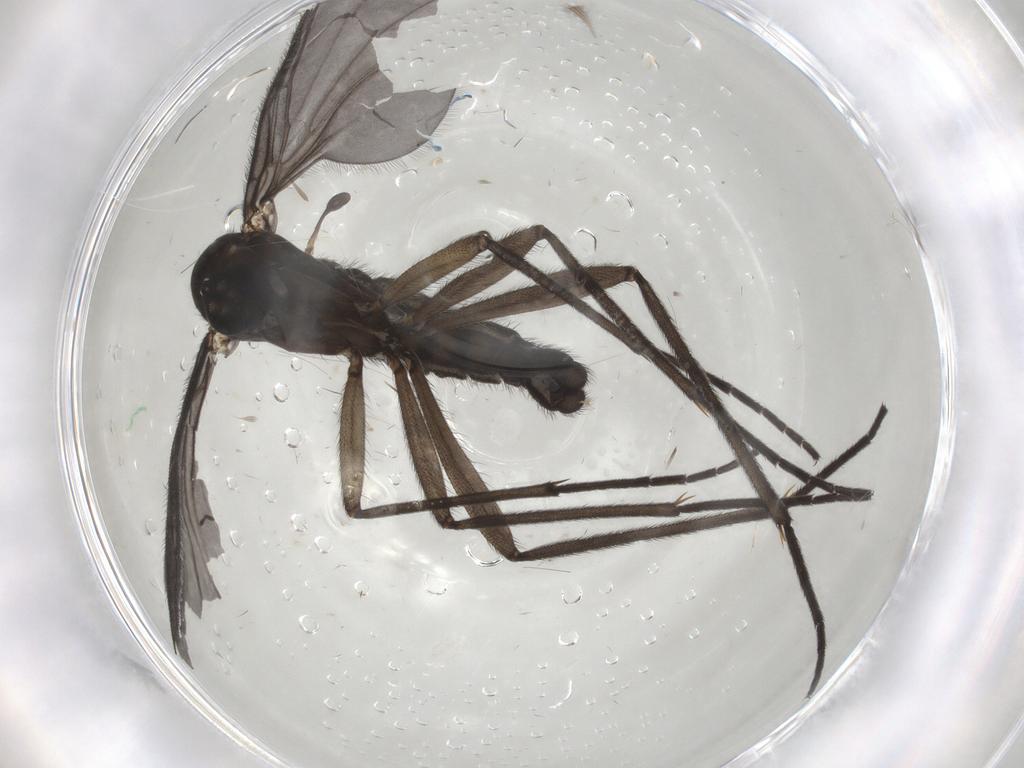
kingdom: Animalia
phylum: Arthropoda
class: Insecta
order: Diptera
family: Sciaridae
